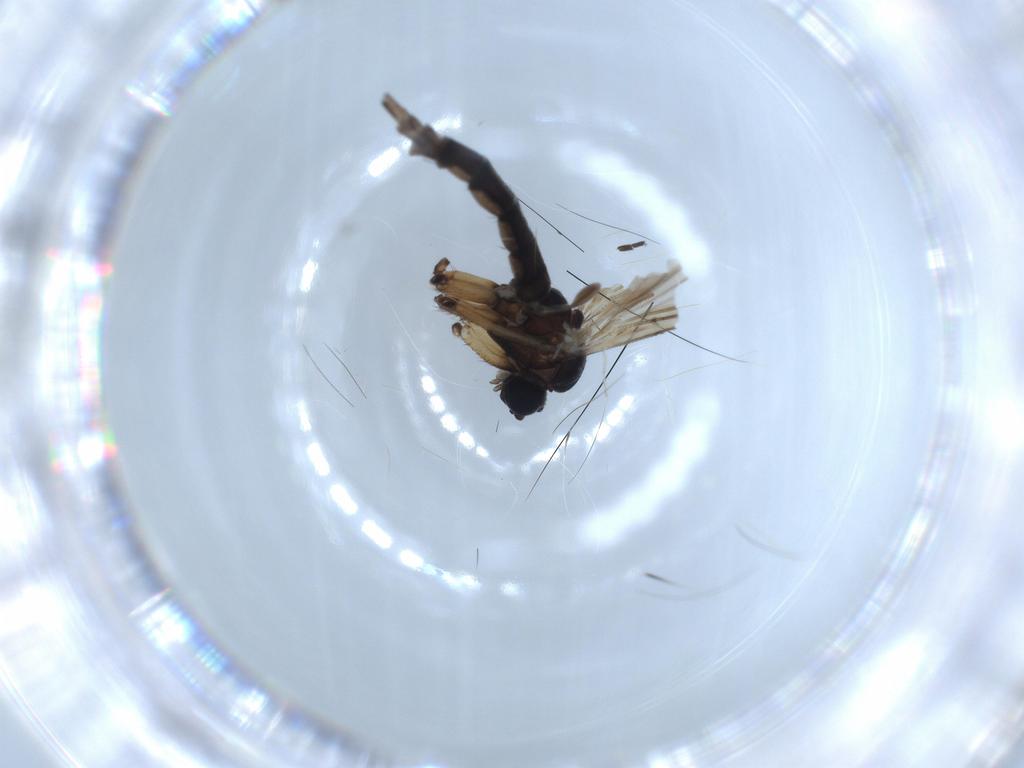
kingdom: Animalia
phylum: Arthropoda
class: Insecta
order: Diptera
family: Sciaridae
